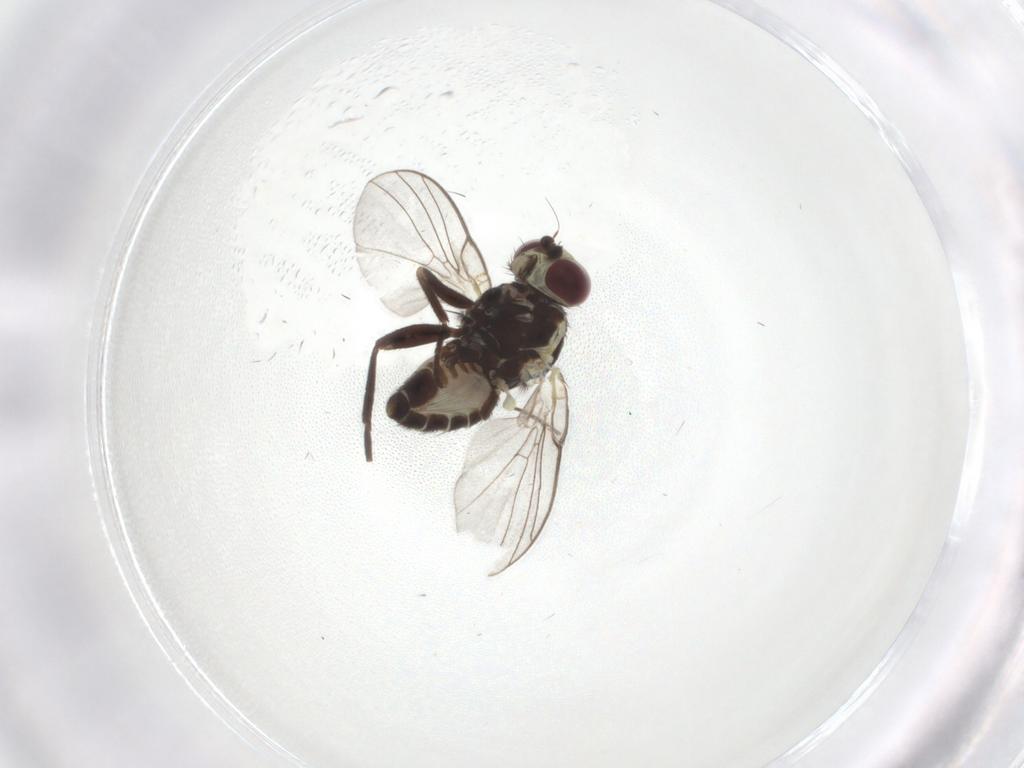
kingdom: Animalia
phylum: Arthropoda
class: Insecta
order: Diptera
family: Agromyzidae
